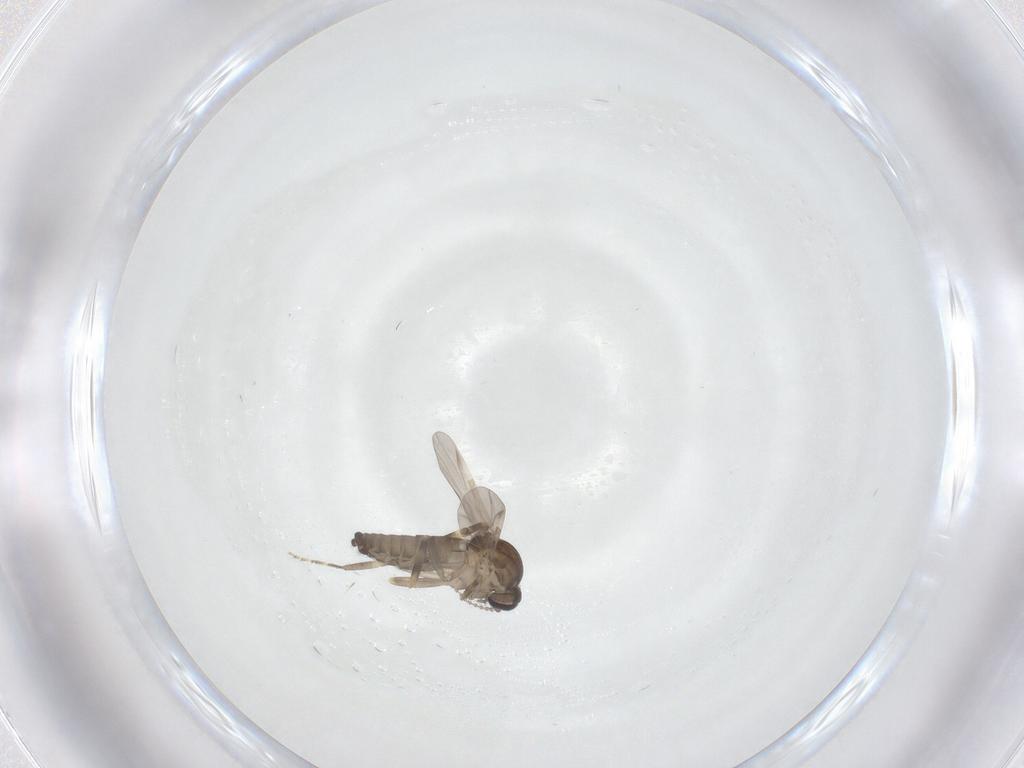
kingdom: Animalia
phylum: Arthropoda
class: Insecta
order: Diptera
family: Ceratopogonidae
